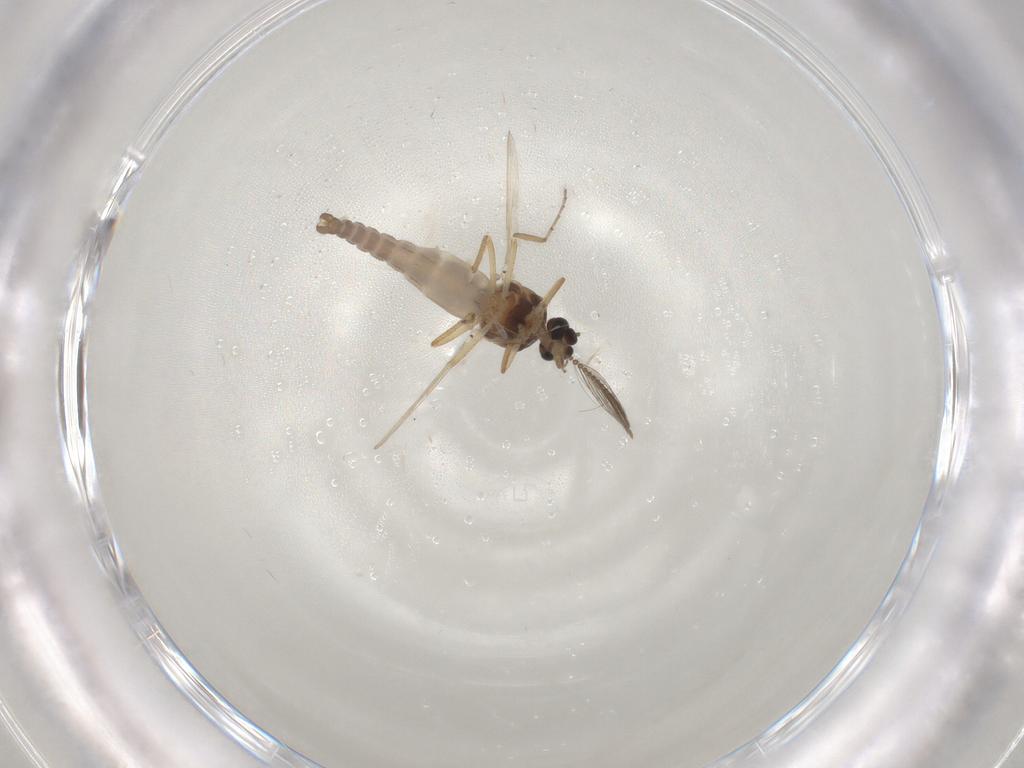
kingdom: Animalia
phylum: Arthropoda
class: Insecta
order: Diptera
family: Ceratopogonidae
